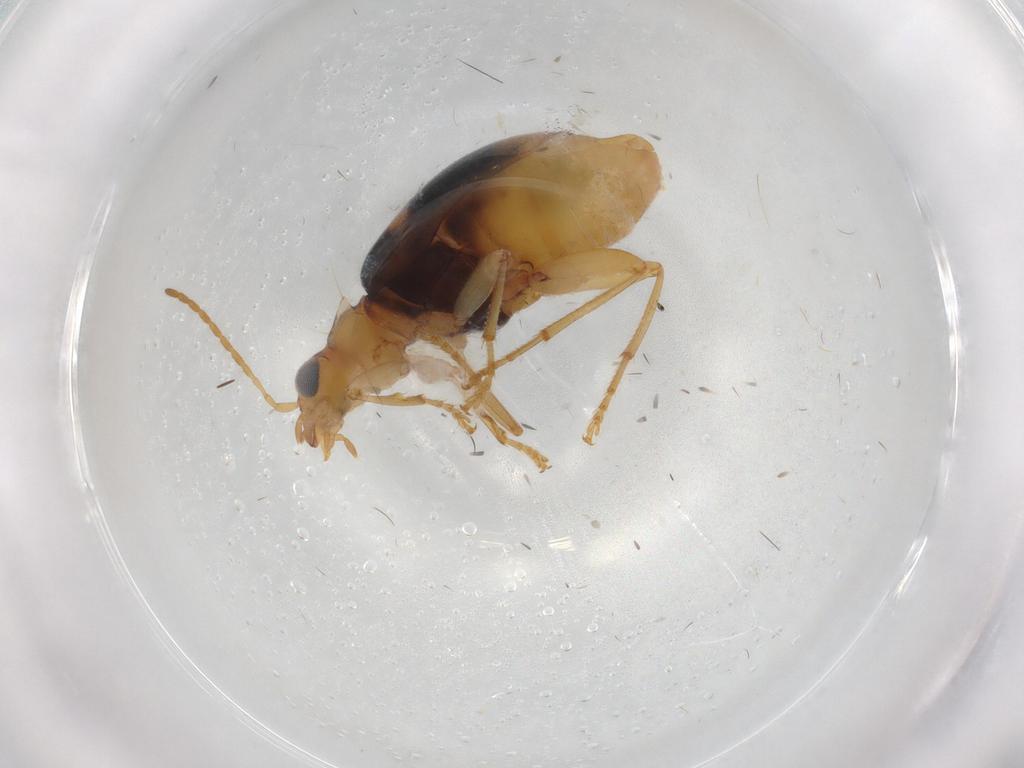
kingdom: Animalia
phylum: Arthropoda
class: Insecta
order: Coleoptera
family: Carabidae
